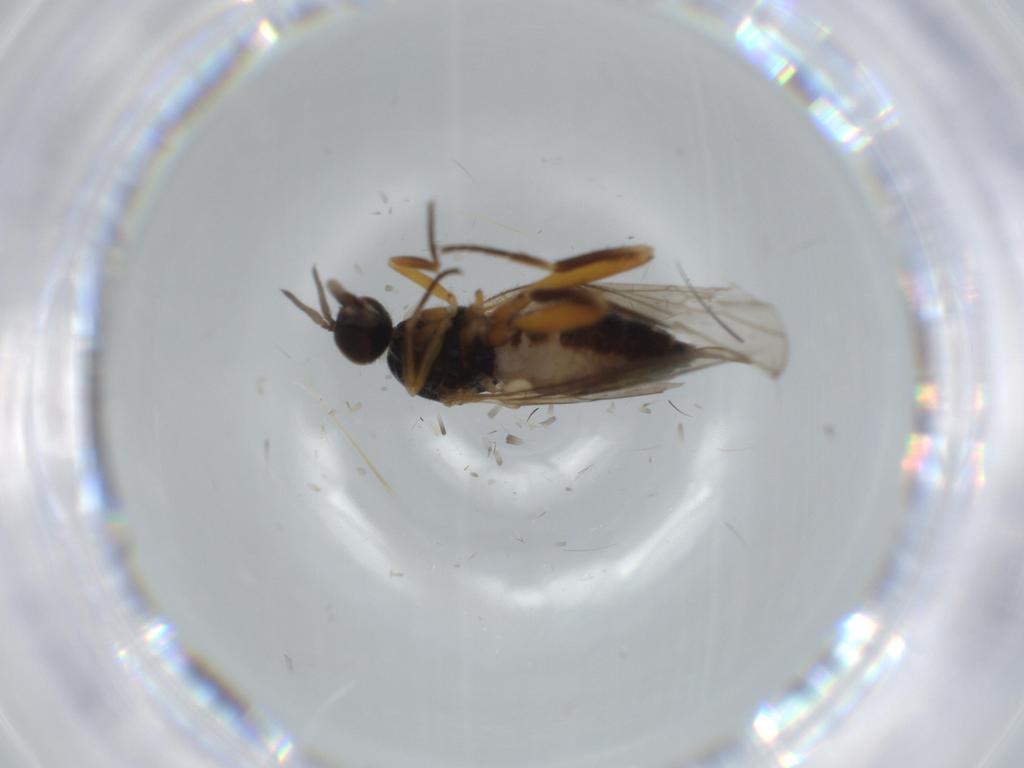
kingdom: Animalia
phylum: Arthropoda
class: Insecta
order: Diptera
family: Hybotidae
